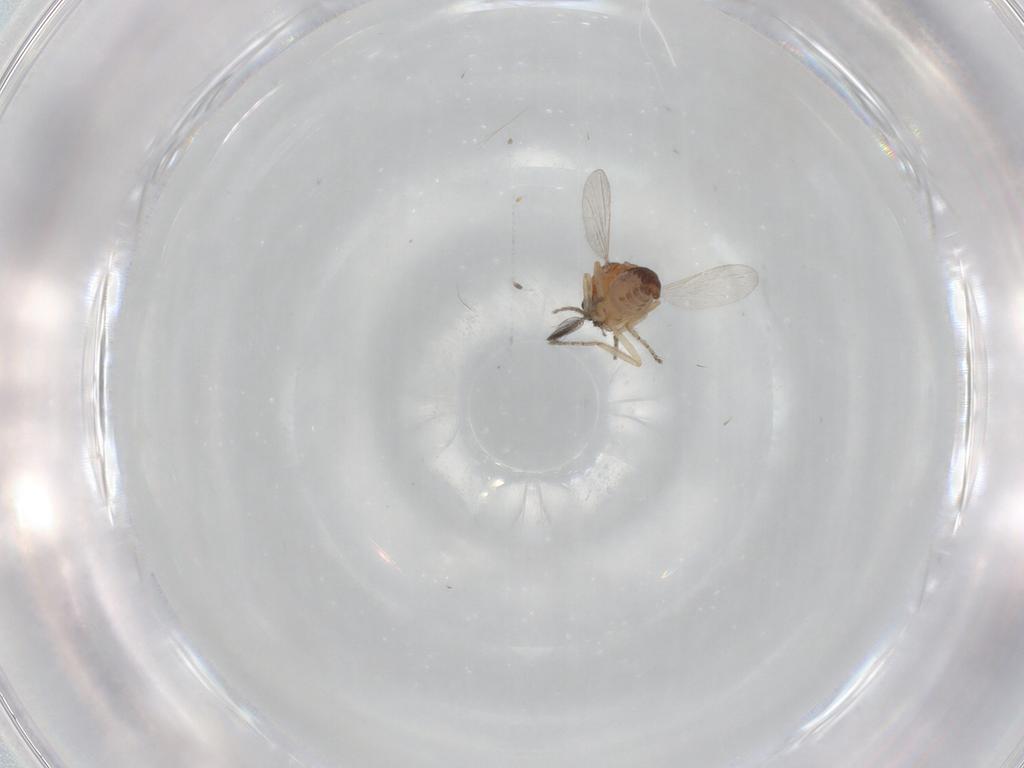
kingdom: Animalia
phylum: Arthropoda
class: Insecta
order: Diptera
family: Ceratopogonidae
